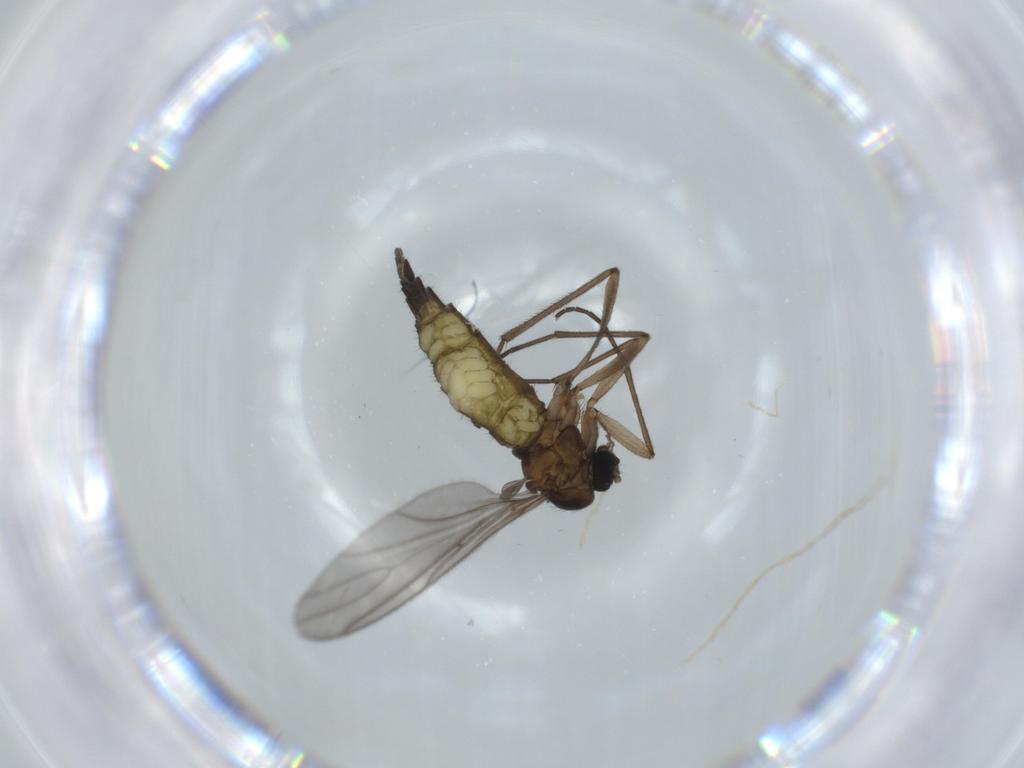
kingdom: Animalia
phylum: Arthropoda
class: Insecta
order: Diptera
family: Sciaridae
